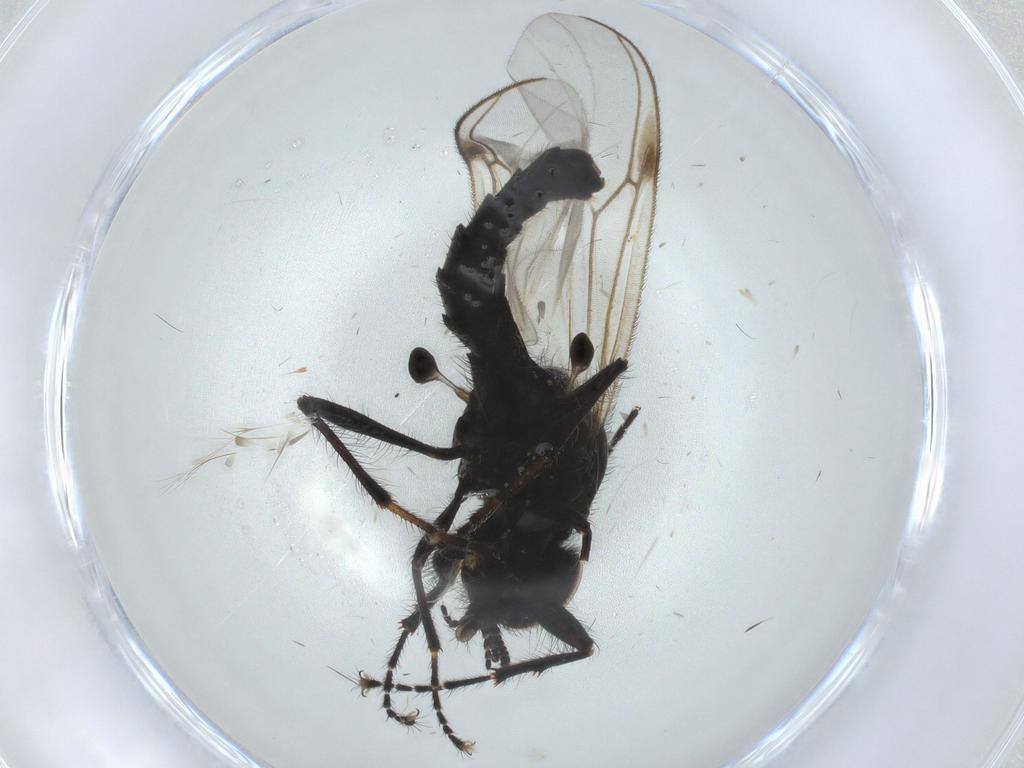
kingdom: Animalia
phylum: Arthropoda
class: Insecta
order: Diptera
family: Bibionidae
